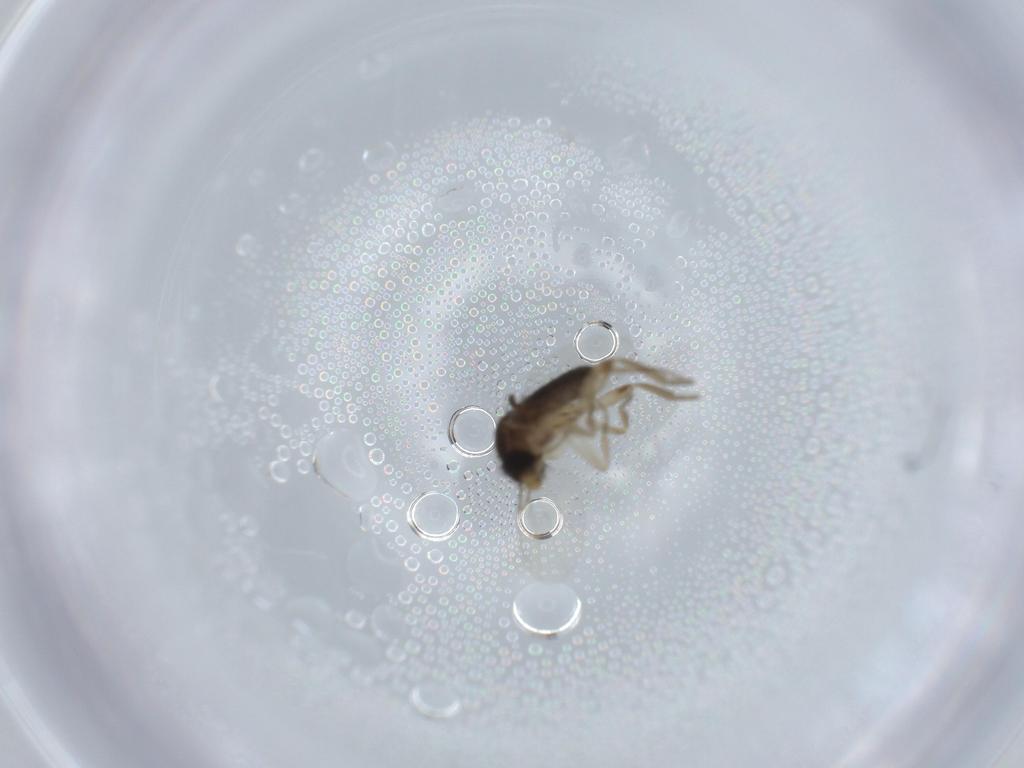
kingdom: Animalia
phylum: Arthropoda
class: Insecta
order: Diptera
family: Phoridae
